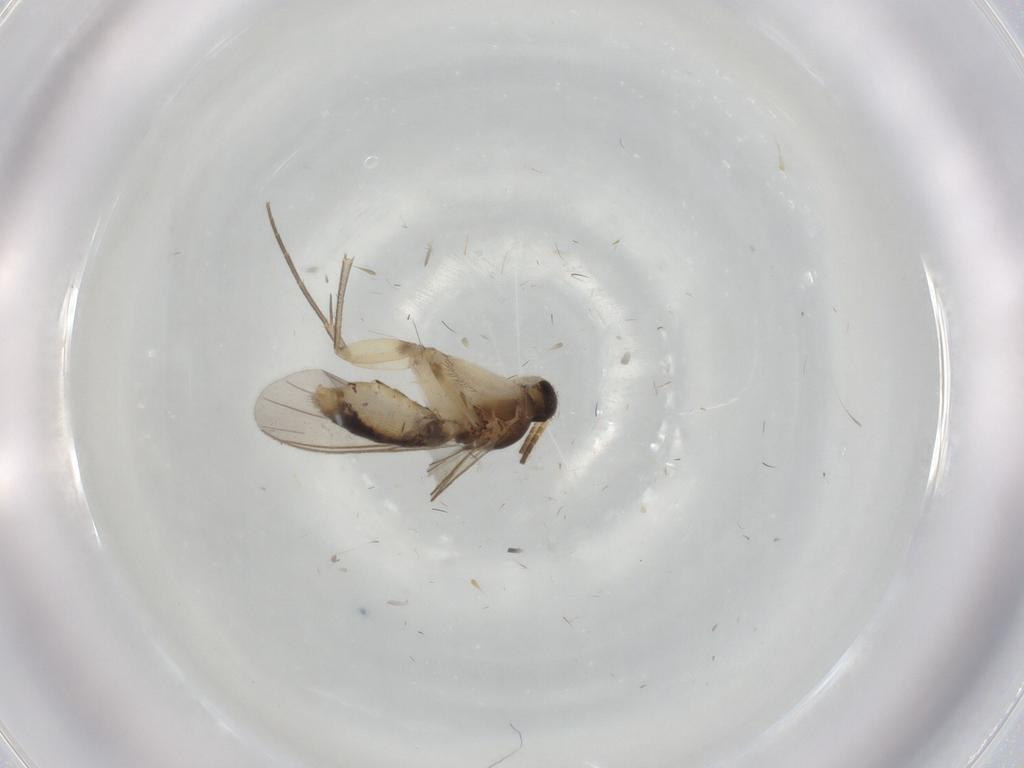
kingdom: Animalia
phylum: Arthropoda
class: Insecta
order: Diptera
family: Mycetophilidae
